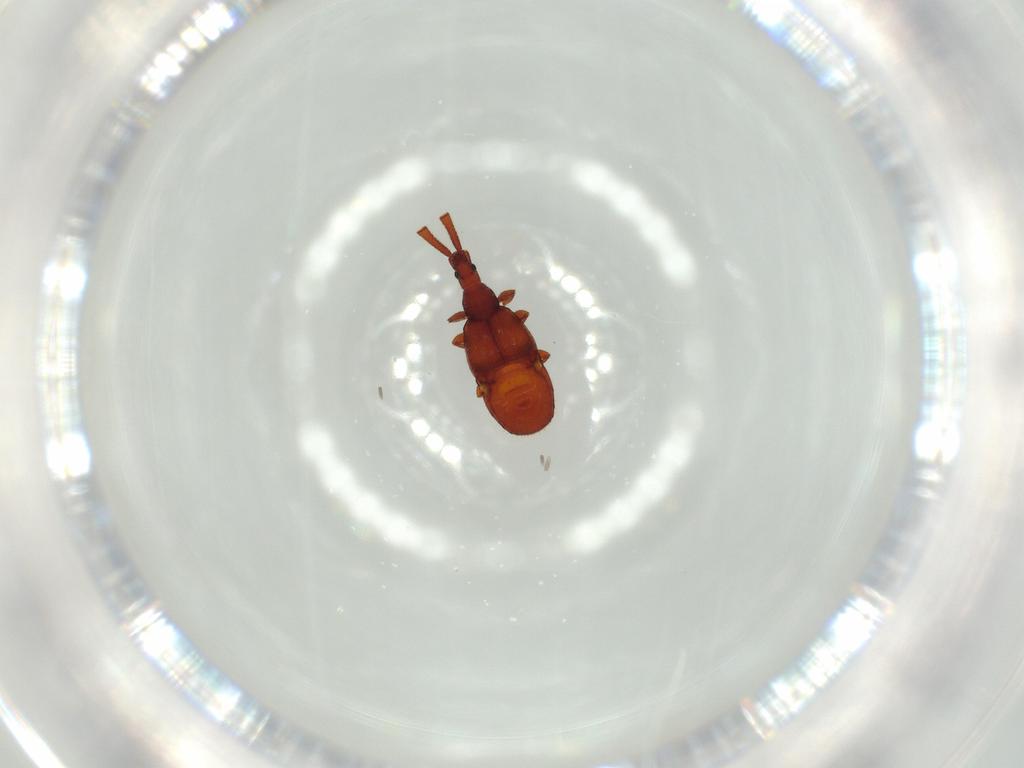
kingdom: Animalia
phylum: Arthropoda
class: Insecta
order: Coleoptera
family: Staphylinidae
